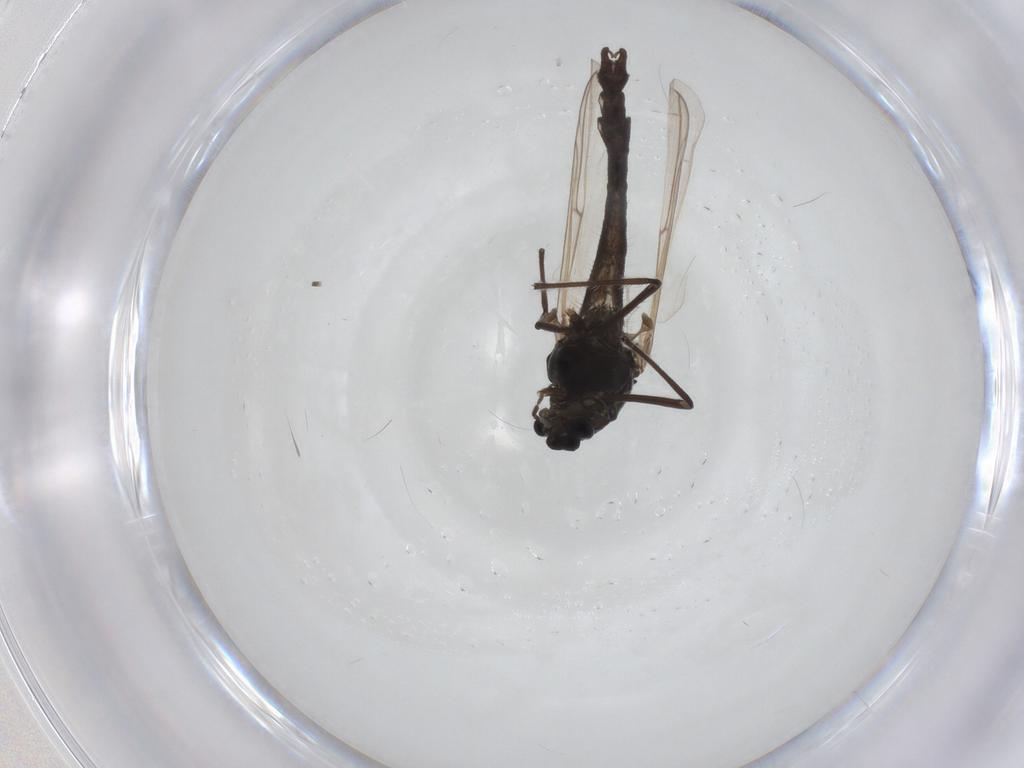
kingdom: Animalia
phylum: Arthropoda
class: Insecta
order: Diptera
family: Chironomidae
